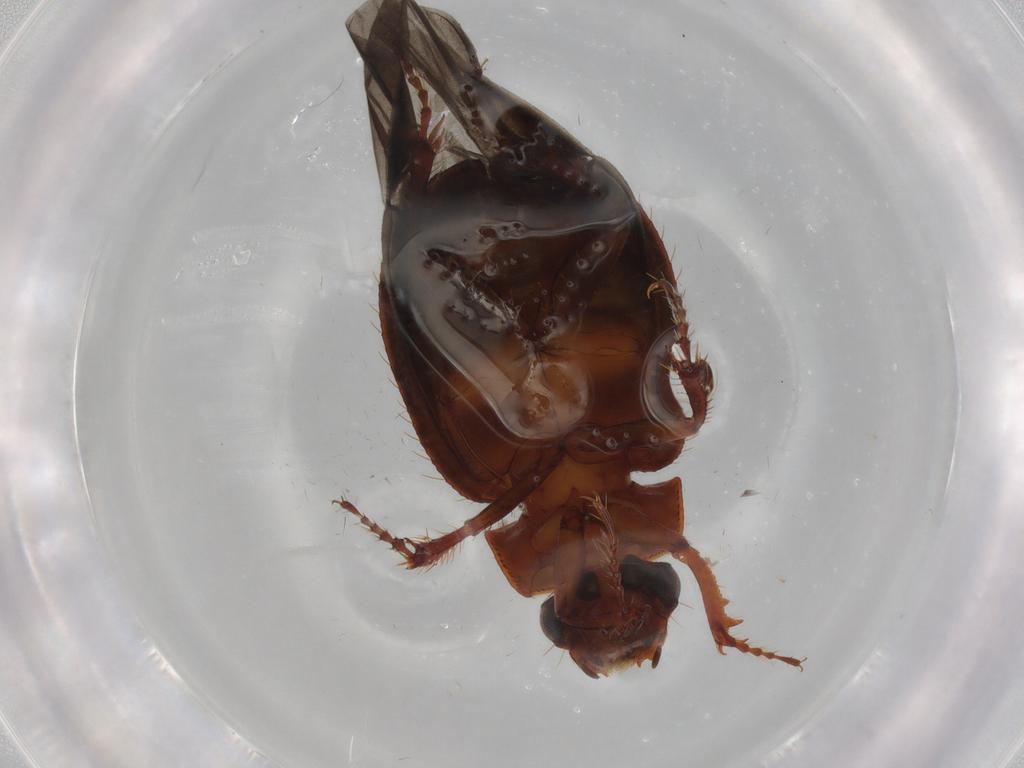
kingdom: Animalia
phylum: Arthropoda
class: Insecta
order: Coleoptera
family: Hybosoridae
